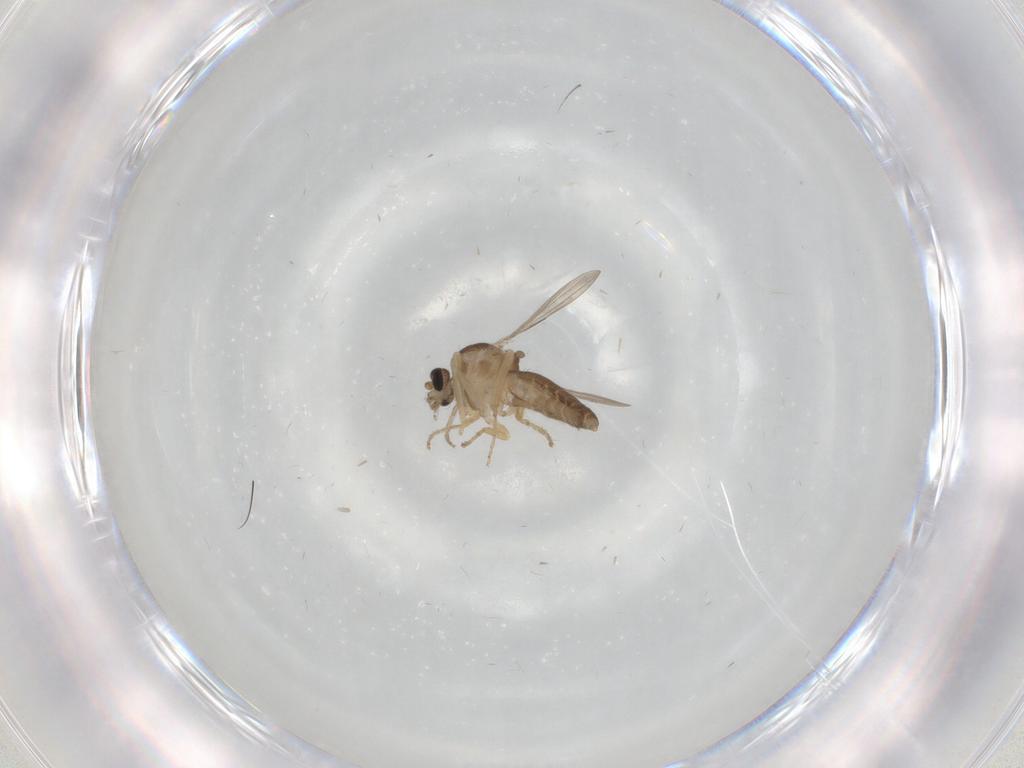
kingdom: Animalia
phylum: Arthropoda
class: Insecta
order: Diptera
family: Ceratopogonidae
